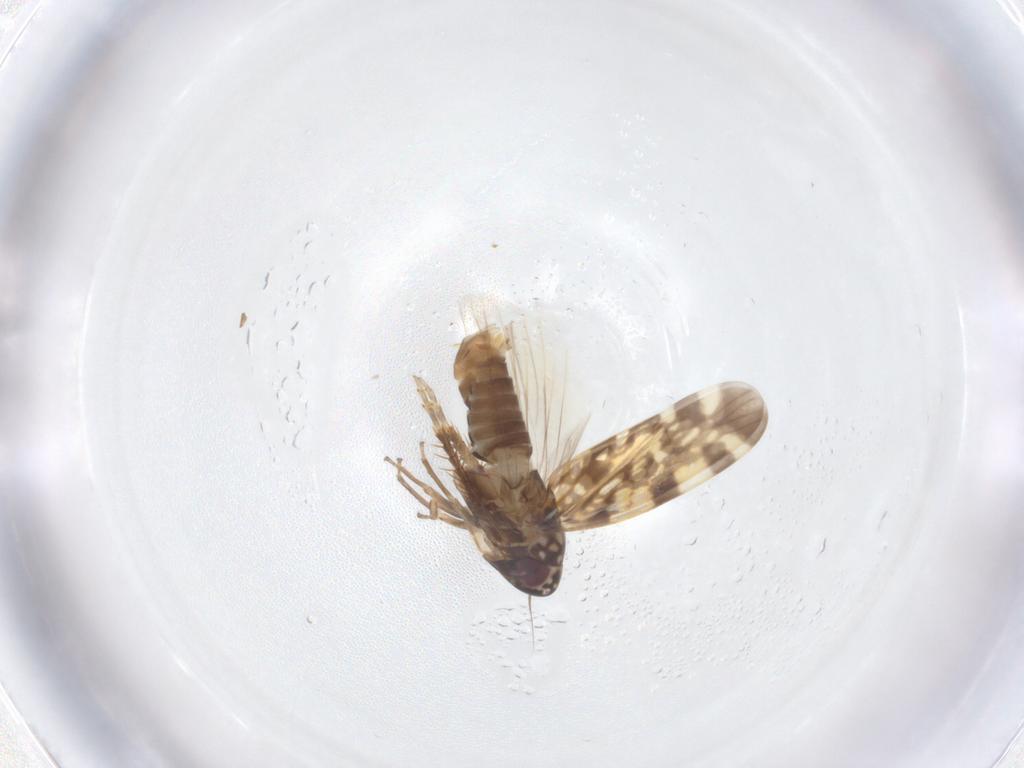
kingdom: Animalia
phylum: Arthropoda
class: Insecta
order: Hemiptera
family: Cicadellidae
